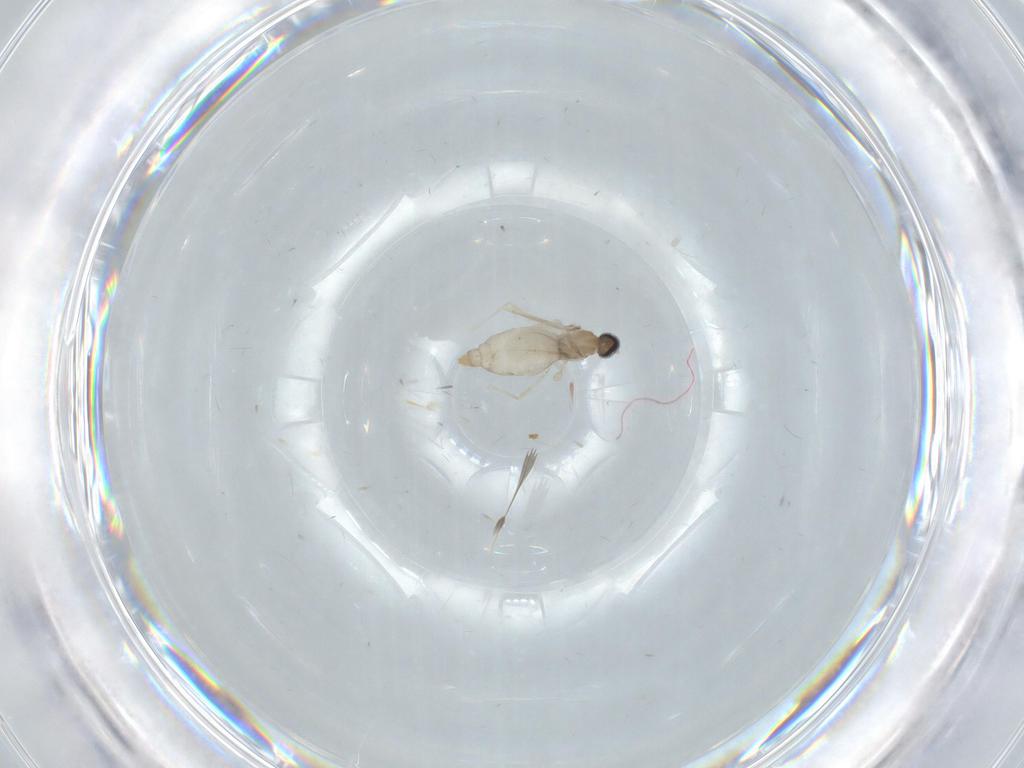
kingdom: Animalia
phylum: Arthropoda
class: Insecta
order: Diptera
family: Cecidomyiidae
